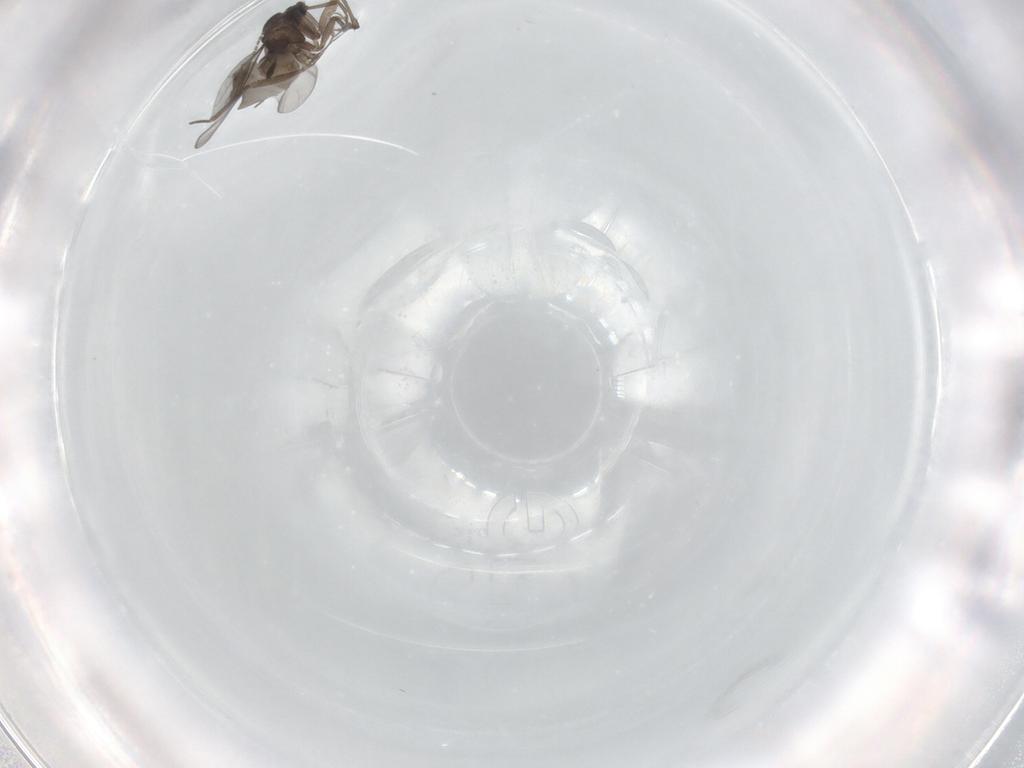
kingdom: Animalia
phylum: Arthropoda
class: Insecta
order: Diptera
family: Sciaridae
